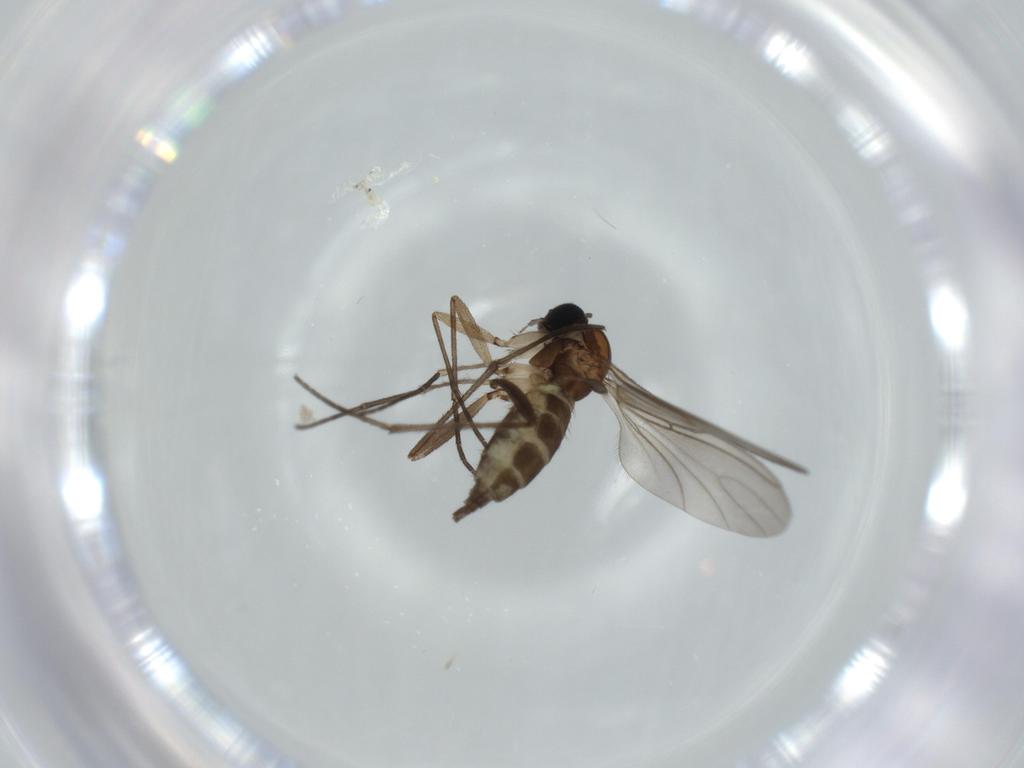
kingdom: Animalia
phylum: Arthropoda
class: Insecta
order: Diptera
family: Sciaridae
